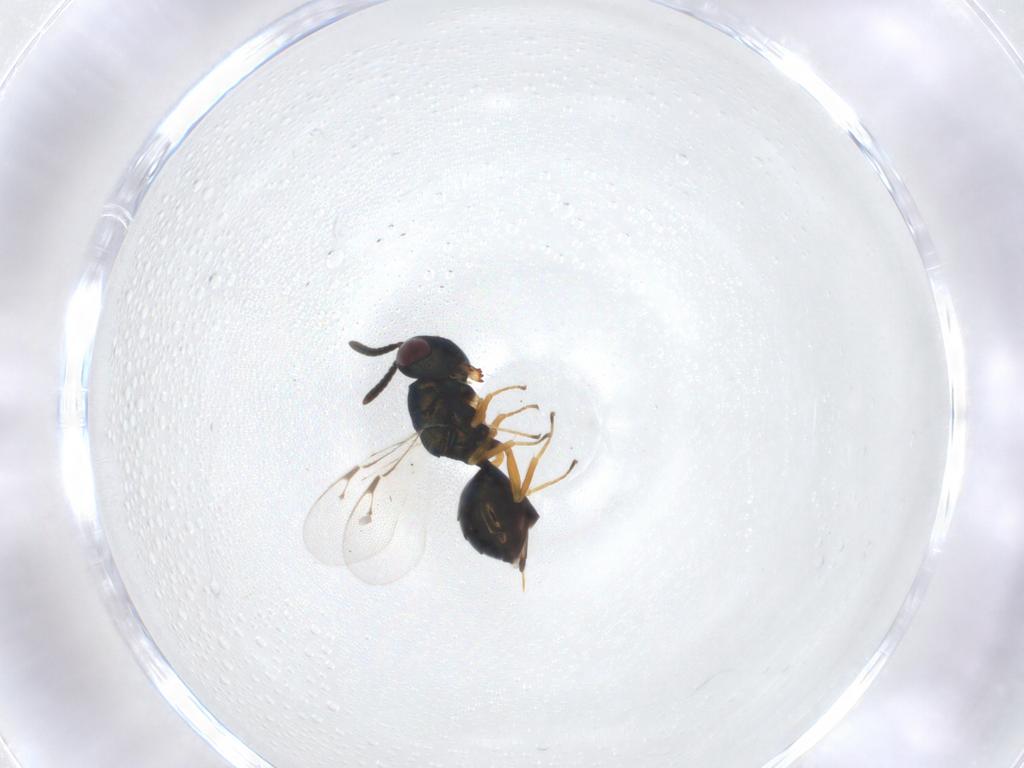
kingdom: Animalia
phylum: Arthropoda
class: Insecta
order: Hymenoptera
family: Pteromalidae
